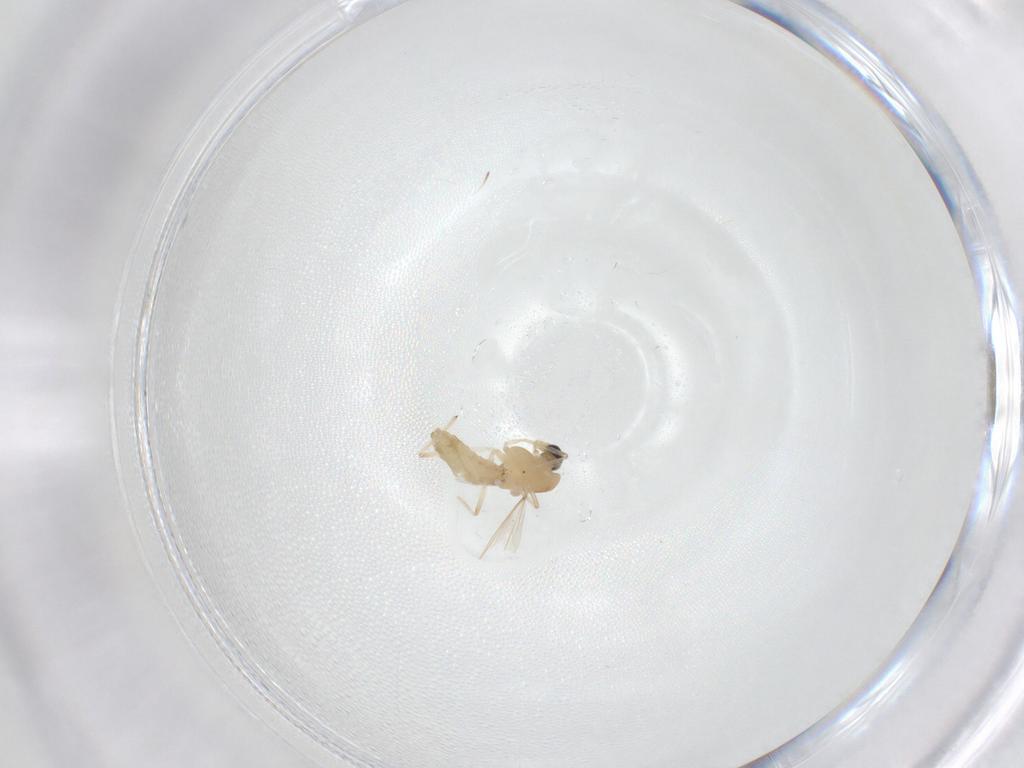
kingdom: Animalia
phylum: Arthropoda
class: Insecta
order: Diptera
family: Chironomidae
